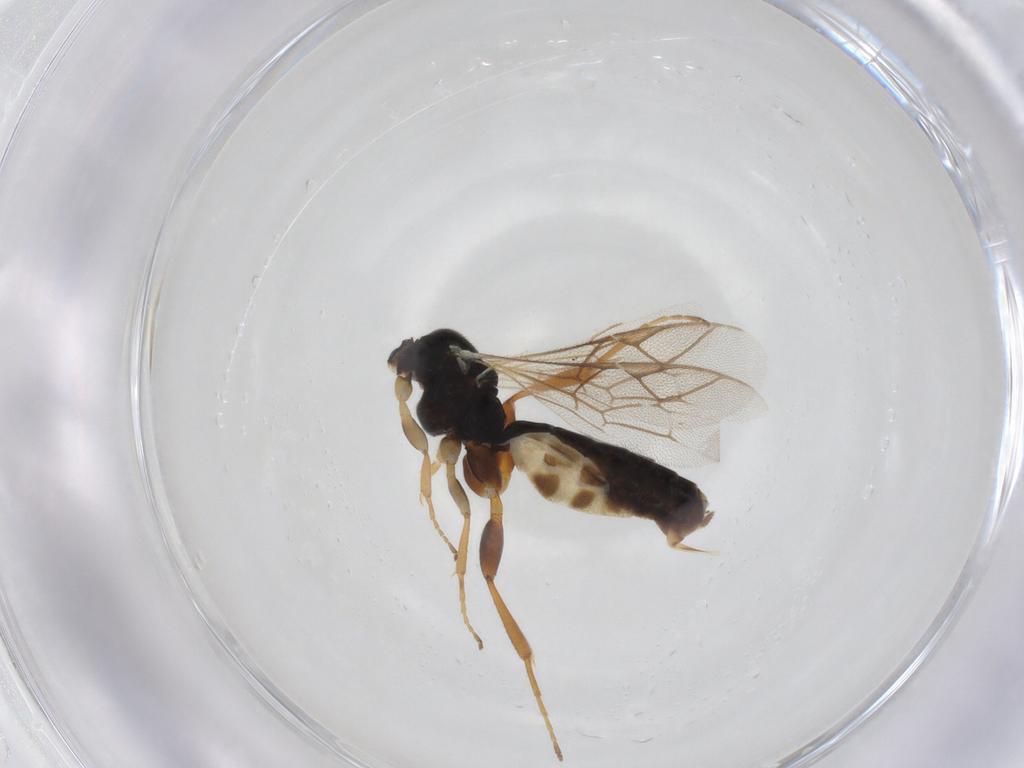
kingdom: Animalia
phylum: Arthropoda
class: Insecta
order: Hymenoptera
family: Ichneumonidae
